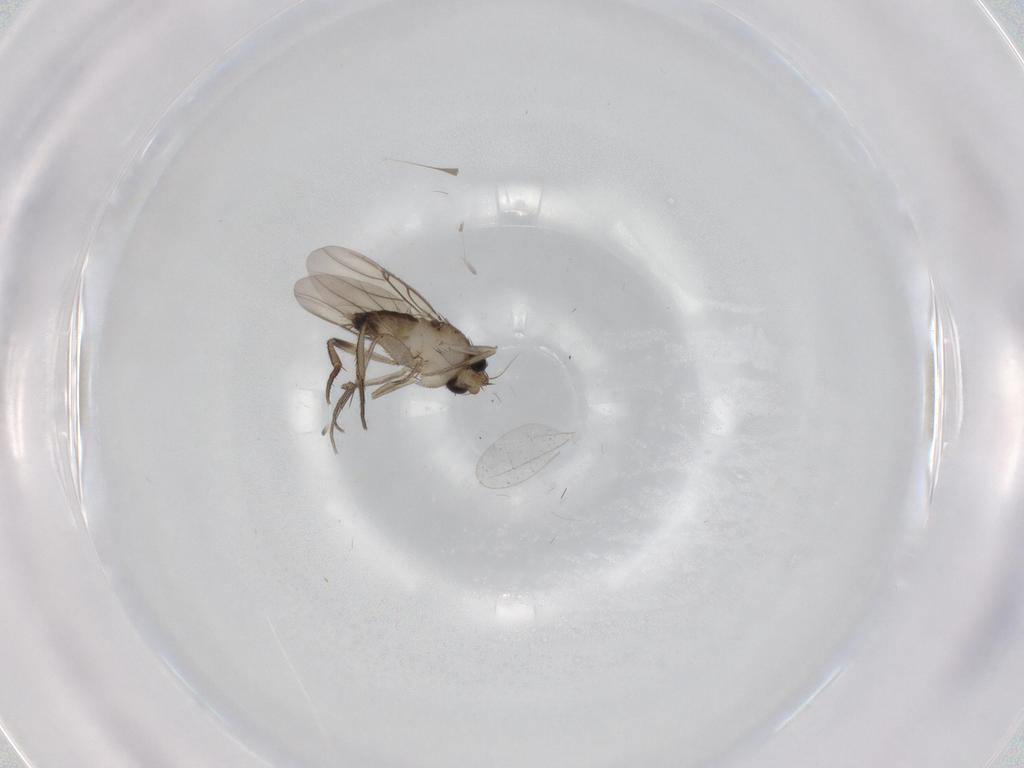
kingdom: Animalia
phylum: Arthropoda
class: Insecta
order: Diptera
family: Phoridae
